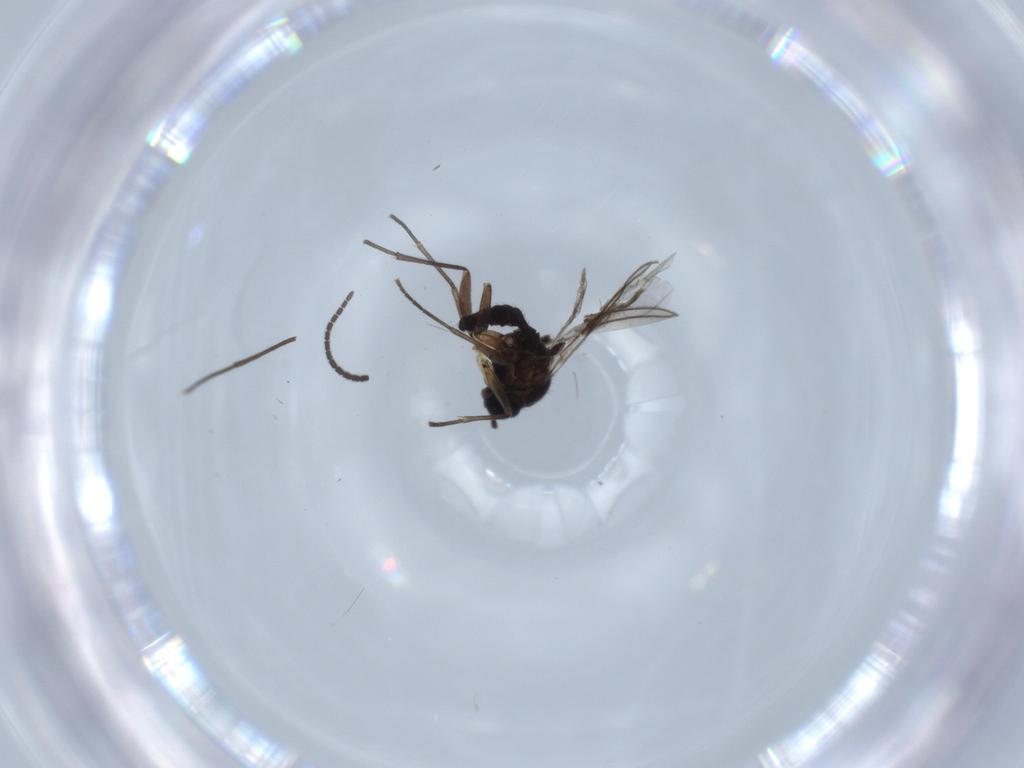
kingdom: Animalia
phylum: Arthropoda
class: Insecta
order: Diptera
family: Sciaridae
